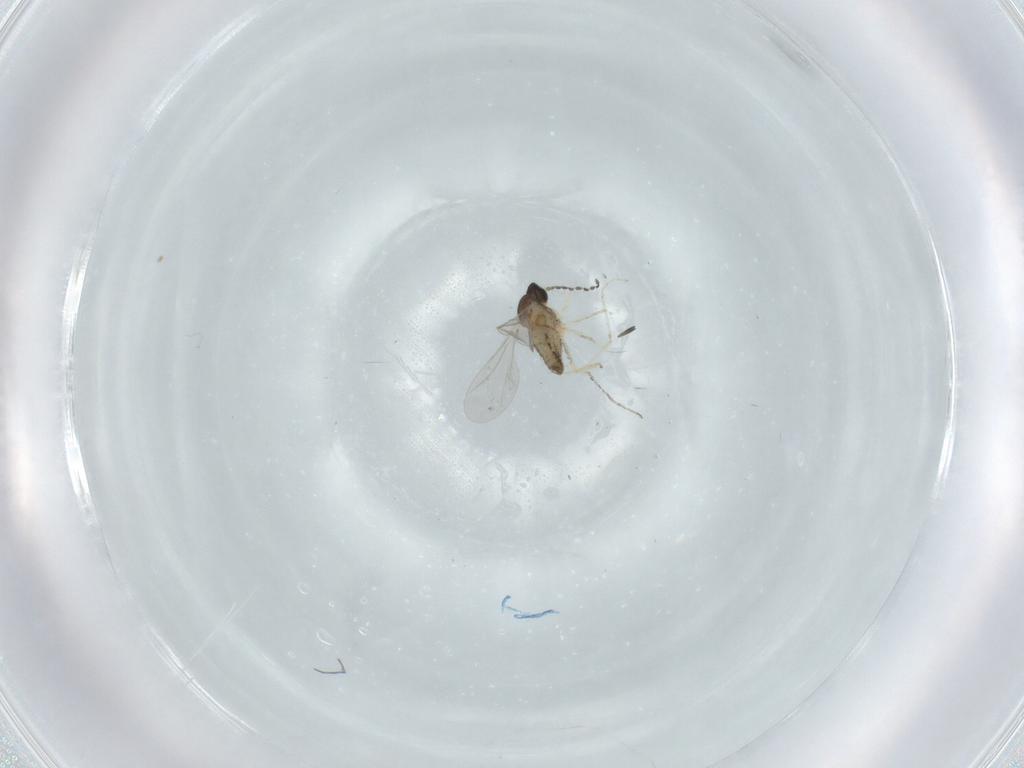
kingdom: Animalia
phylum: Arthropoda
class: Insecta
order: Diptera
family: Cecidomyiidae
